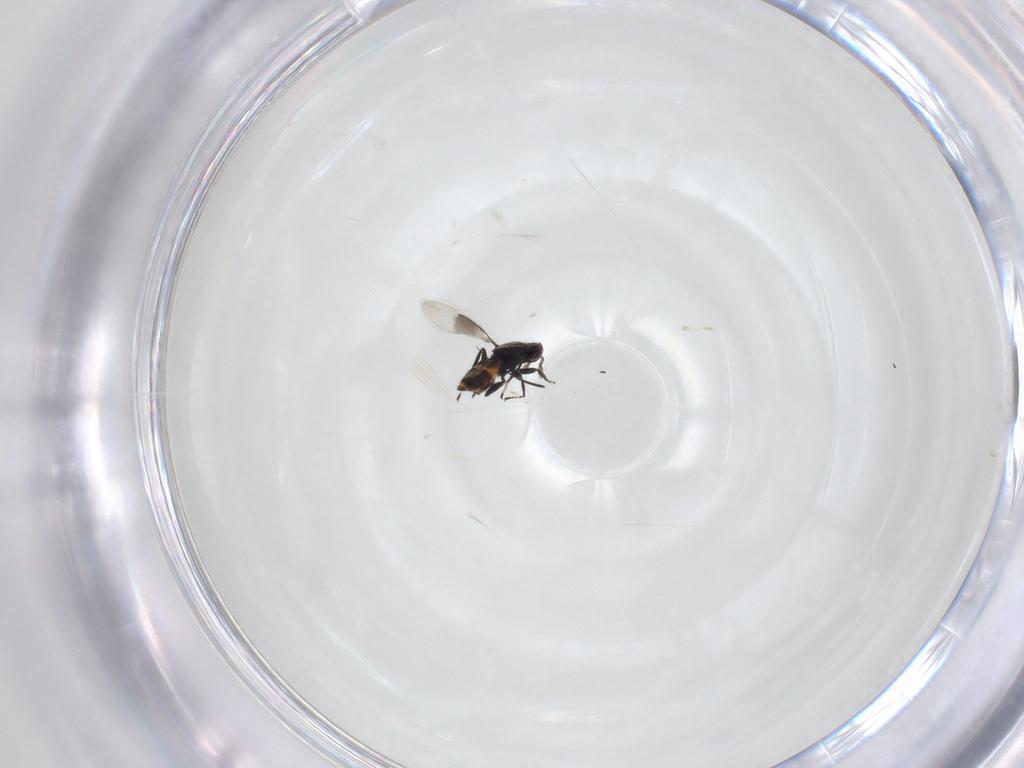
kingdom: Animalia
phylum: Arthropoda
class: Insecta
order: Hymenoptera
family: Eulophidae
